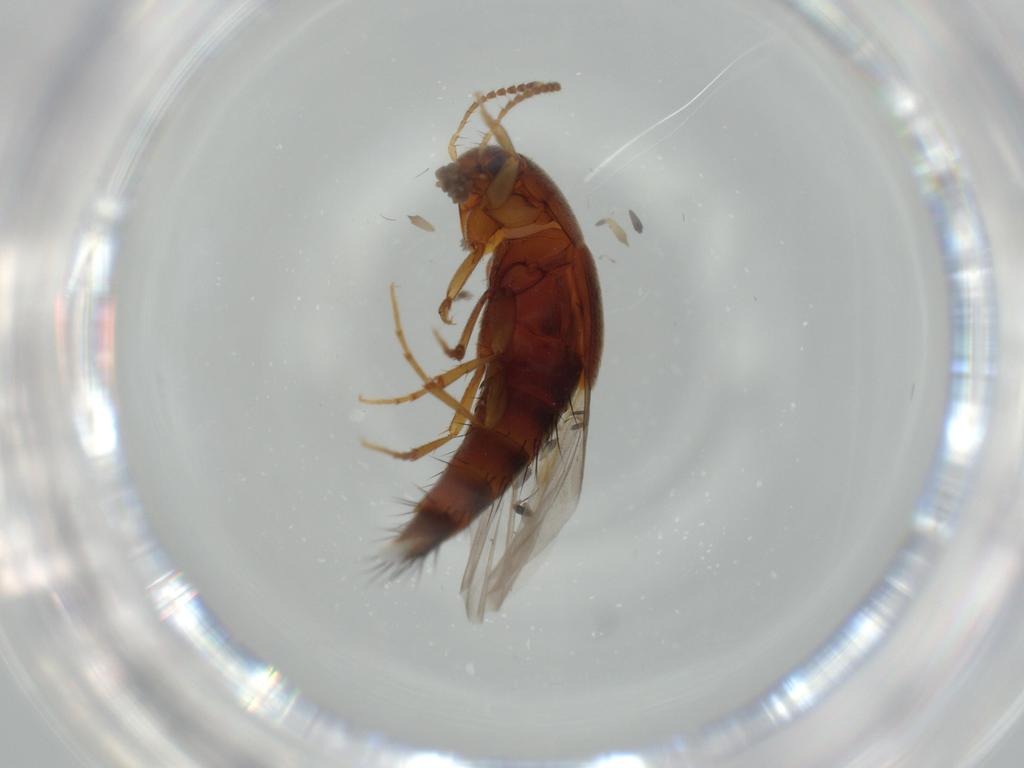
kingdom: Animalia
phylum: Arthropoda
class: Insecta
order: Coleoptera
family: Staphylinidae
